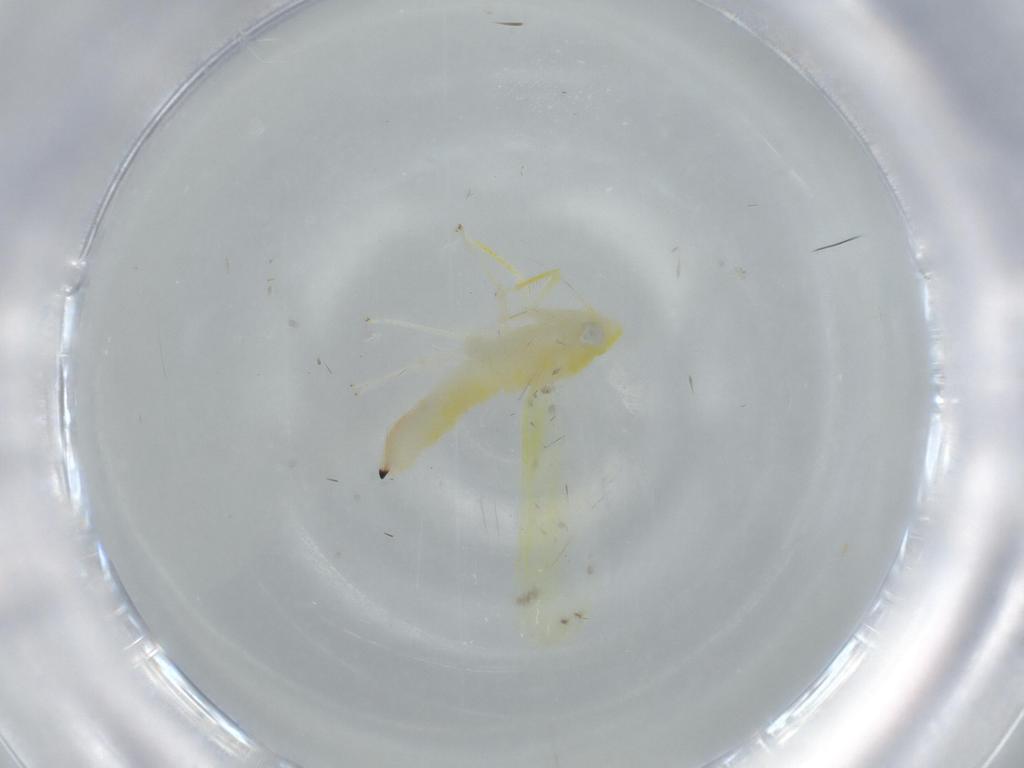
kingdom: Animalia
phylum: Arthropoda
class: Insecta
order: Hemiptera
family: Cicadellidae
